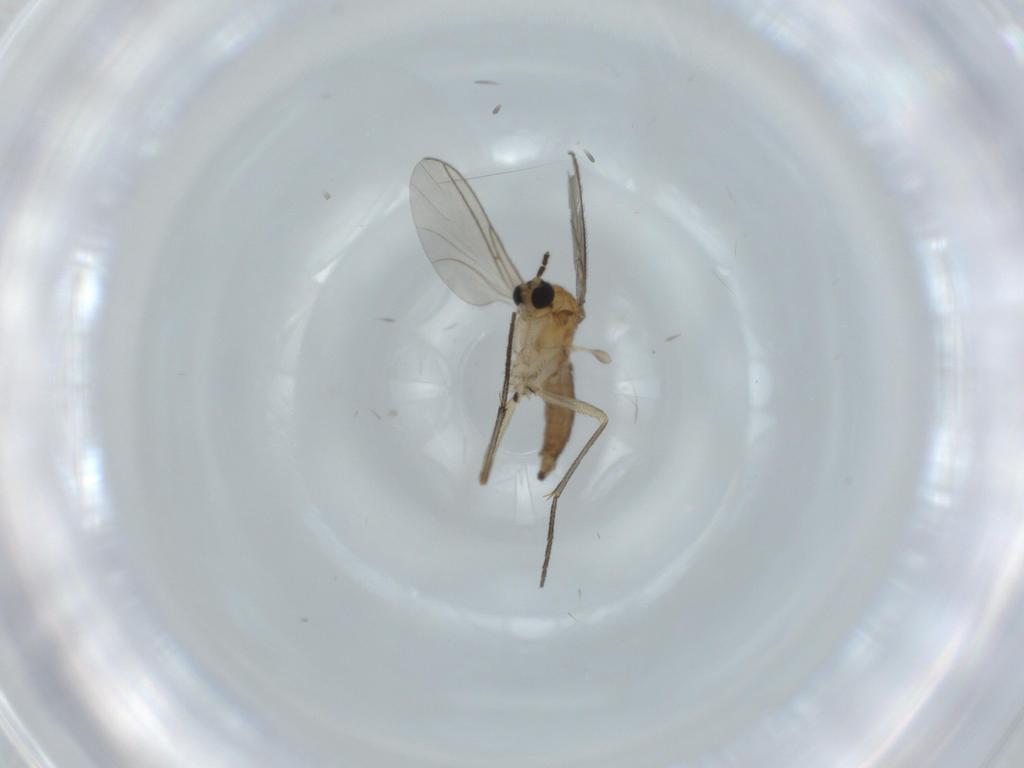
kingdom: Animalia
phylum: Arthropoda
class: Insecta
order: Diptera
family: Sciaridae
